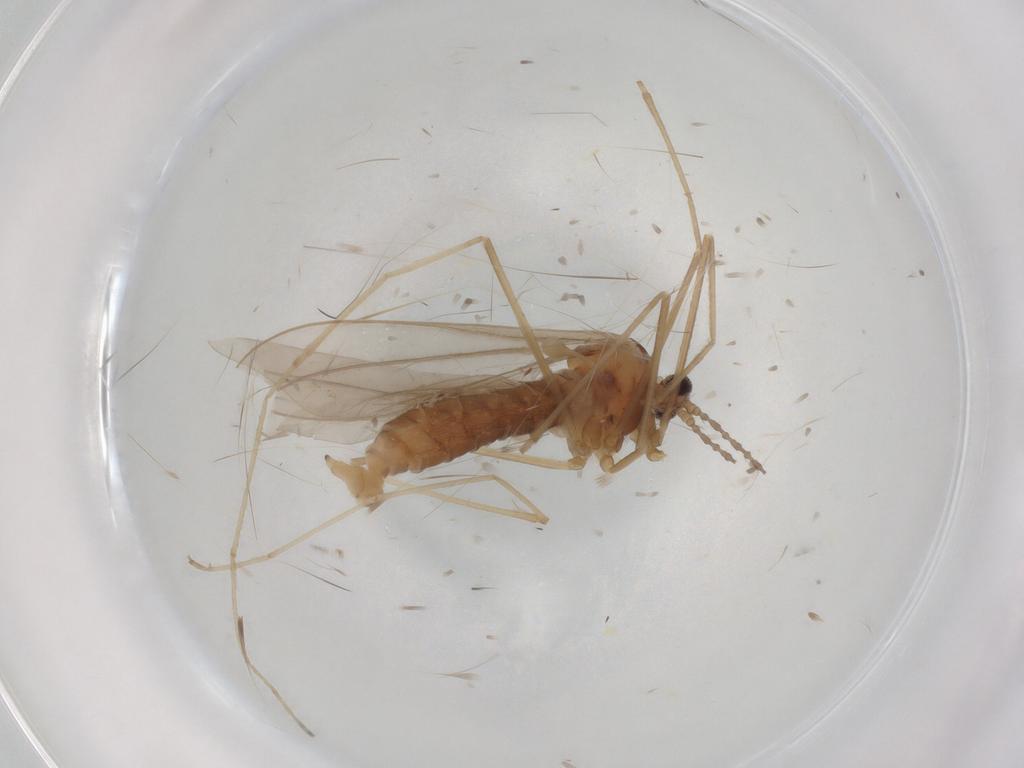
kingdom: Animalia
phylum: Arthropoda
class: Insecta
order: Diptera
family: Cecidomyiidae
